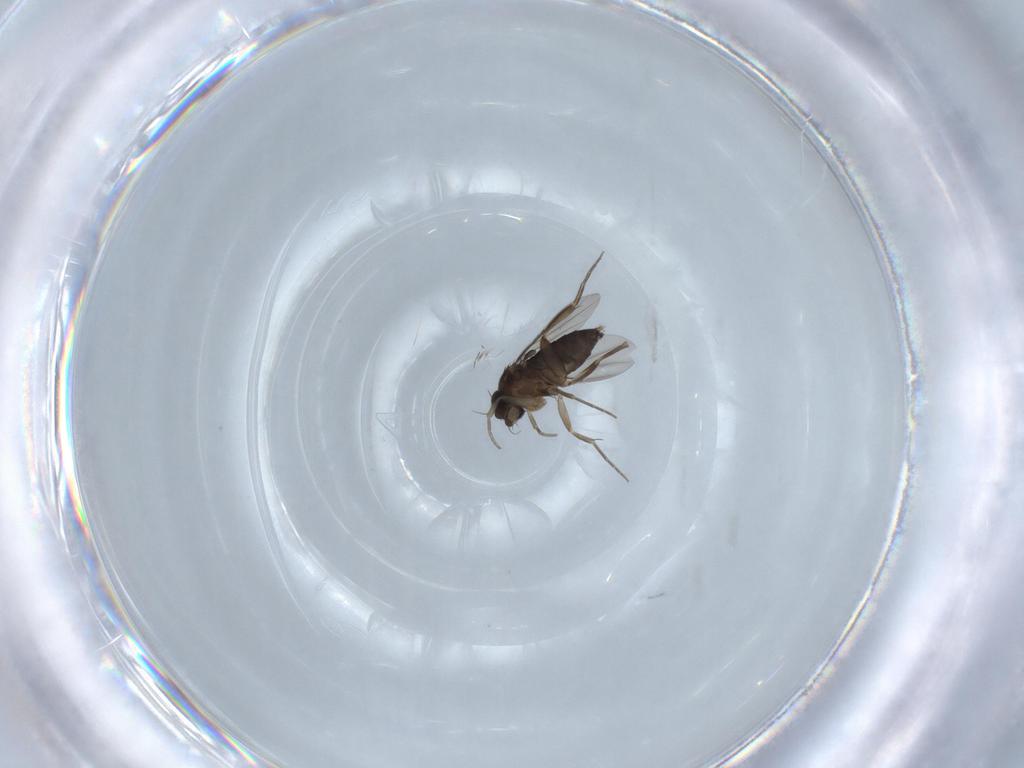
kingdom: Animalia
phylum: Arthropoda
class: Insecta
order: Diptera
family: Phoridae
